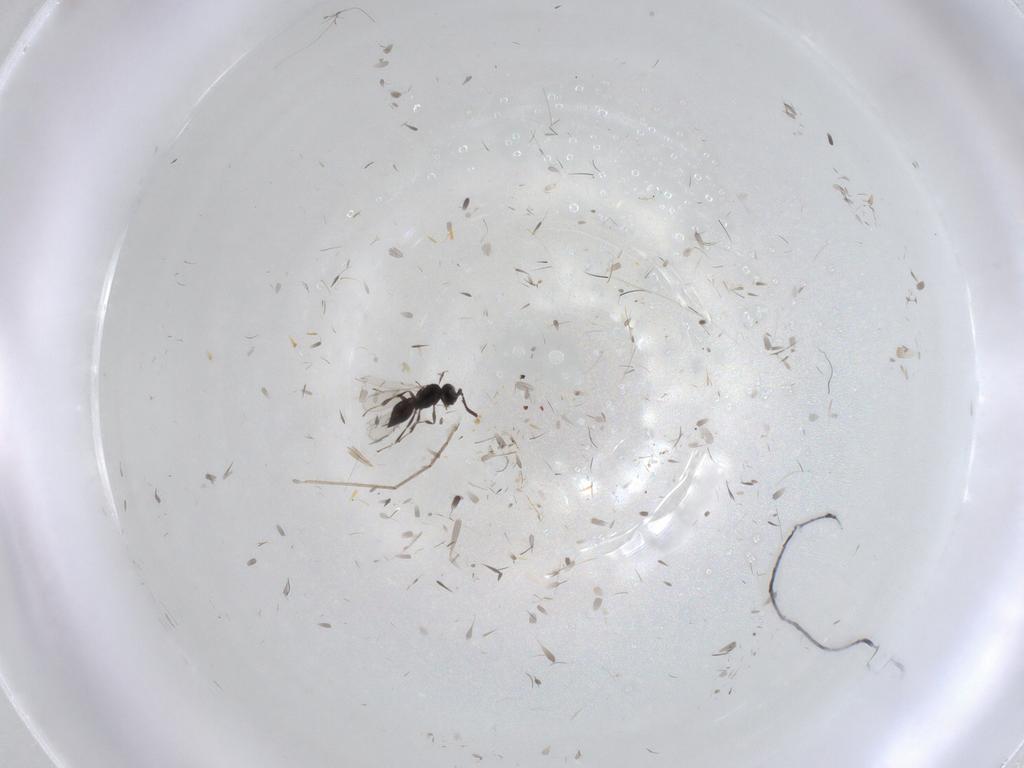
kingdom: Animalia
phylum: Arthropoda
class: Insecta
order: Hymenoptera
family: Scelionidae
